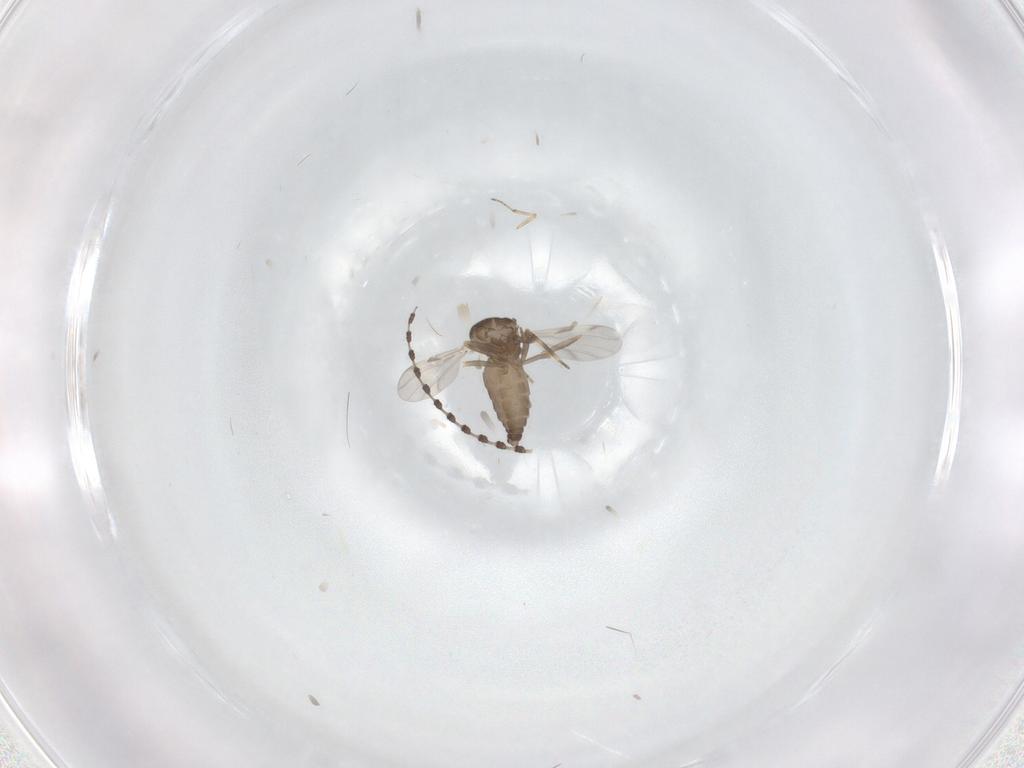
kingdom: Animalia
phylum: Arthropoda
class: Insecta
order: Diptera
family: Ceratopogonidae
